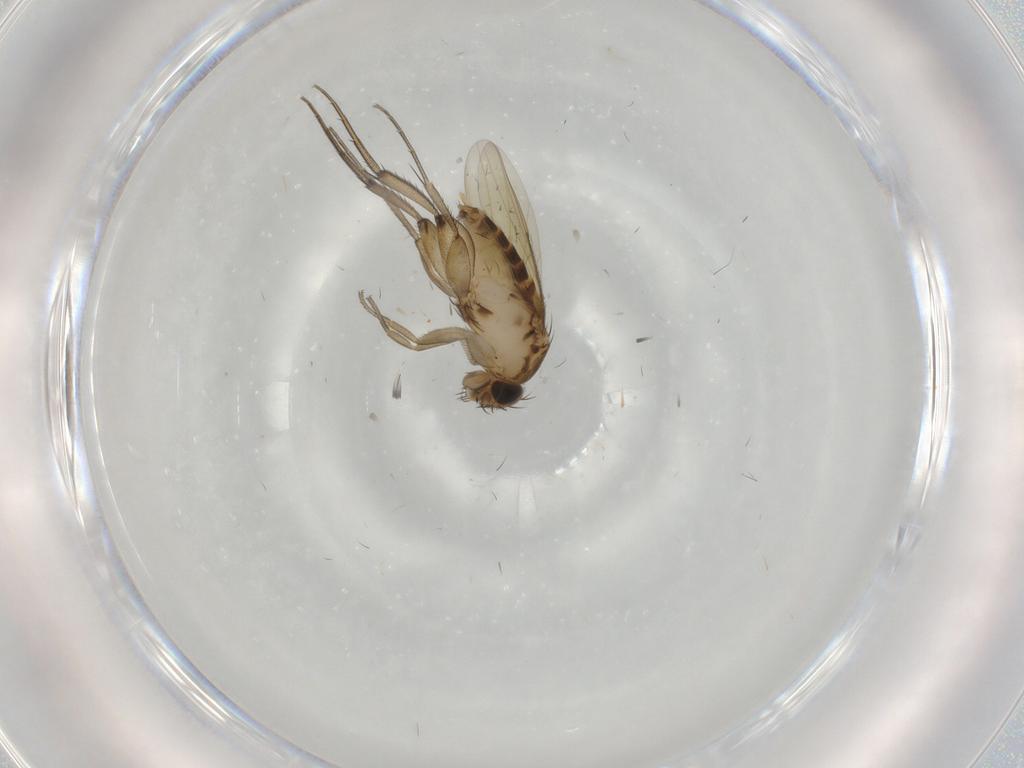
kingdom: Animalia
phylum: Arthropoda
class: Insecta
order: Diptera
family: Phoridae
